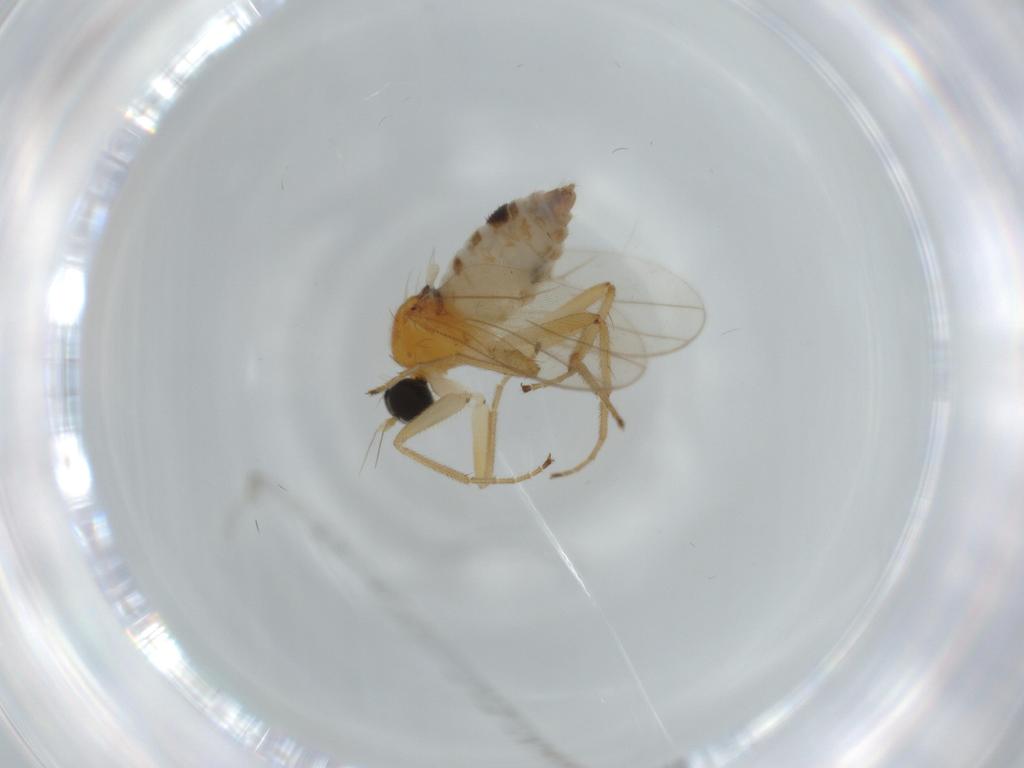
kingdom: Animalia
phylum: Arthropoda
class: Insecta
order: Diptera
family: Hybotidae
